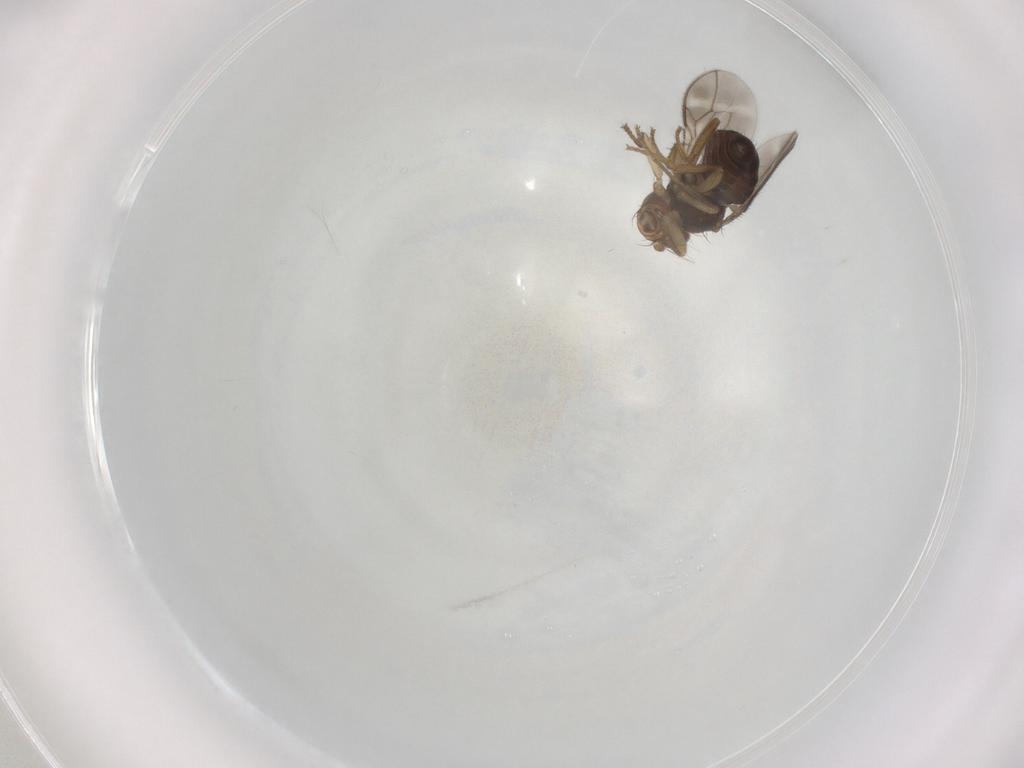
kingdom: Animalia
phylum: Arthropoda
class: Insecta
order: Diptera
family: Sphaeroceridae
